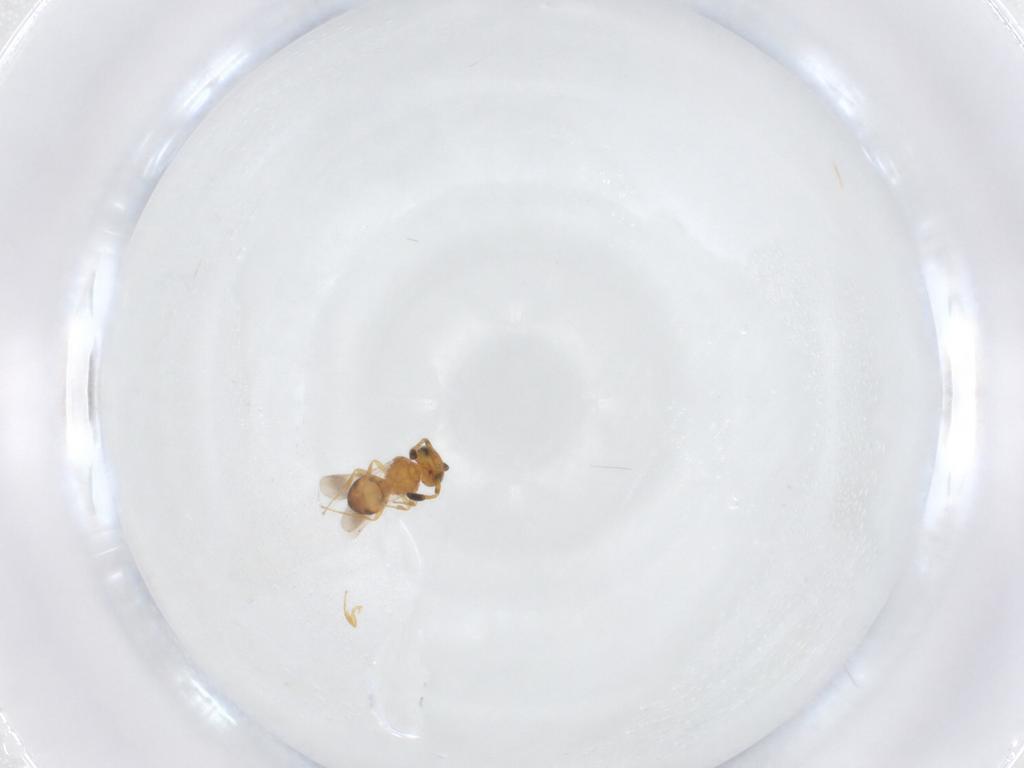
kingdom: Animalia
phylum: Arthropoda
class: Insecta
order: Hymenoptera
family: Scelionidae
